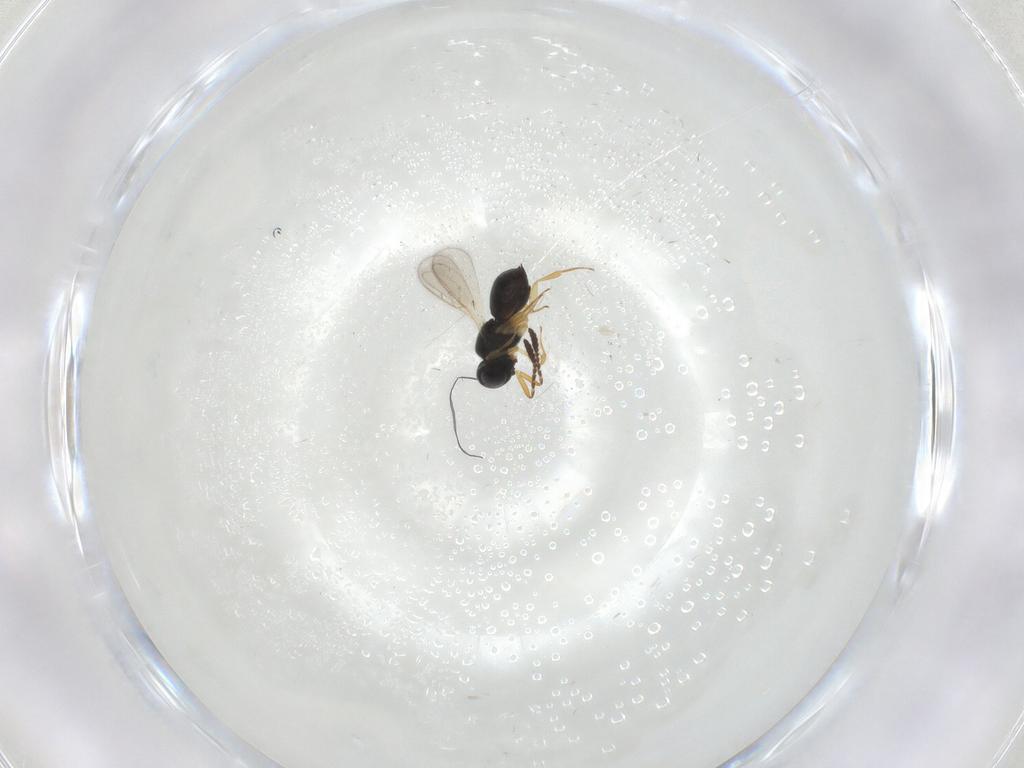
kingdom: Animalia
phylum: Arthropoda
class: Insecta
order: Hymenoptera
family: Scelionidae
